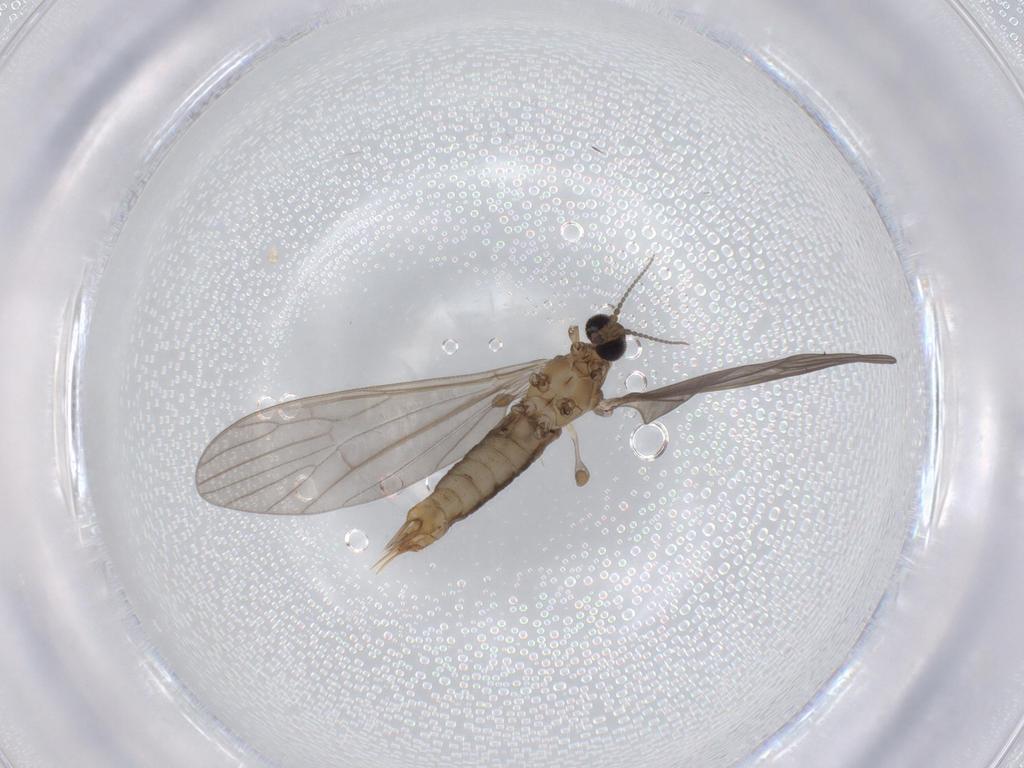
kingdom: Animalia
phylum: Arthropoda
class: Insecta
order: Diptera
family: Limoniidae
